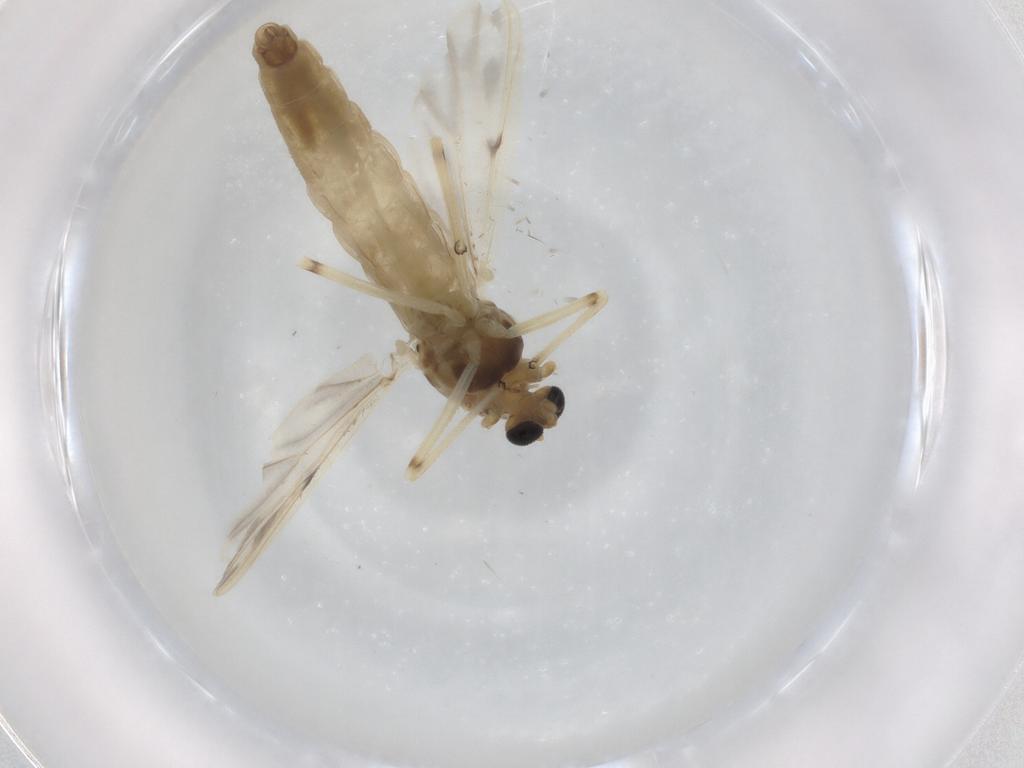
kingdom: Animalia
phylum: Arthropoda
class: Insecta
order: Diptera
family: Chironomidae
